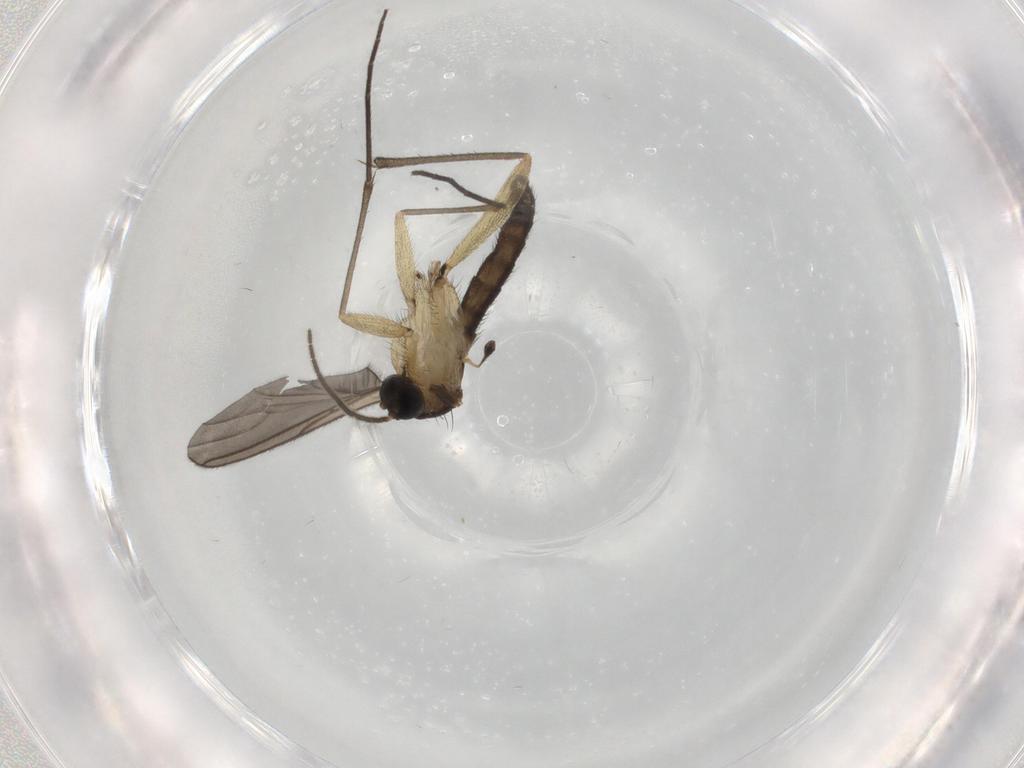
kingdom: Animalia
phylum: Arthropoda
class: Insecta
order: Diptera
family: Sciaridae
